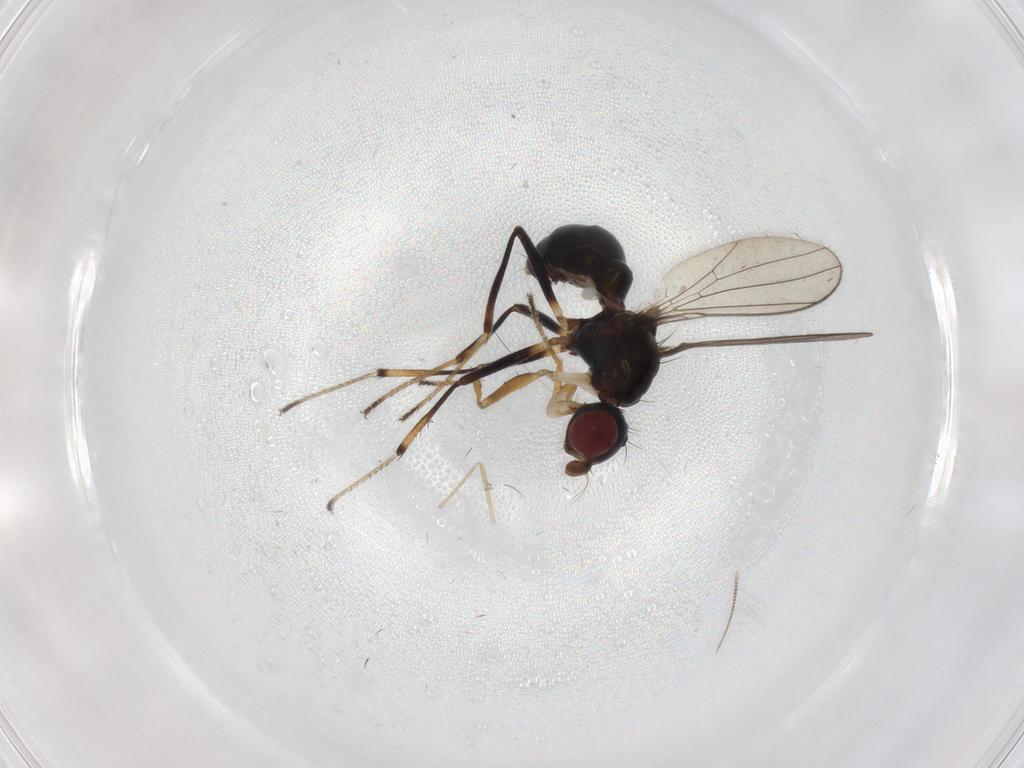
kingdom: Animalia
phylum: Arthropoda
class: Insecta
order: Diptera
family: Sepsidae
